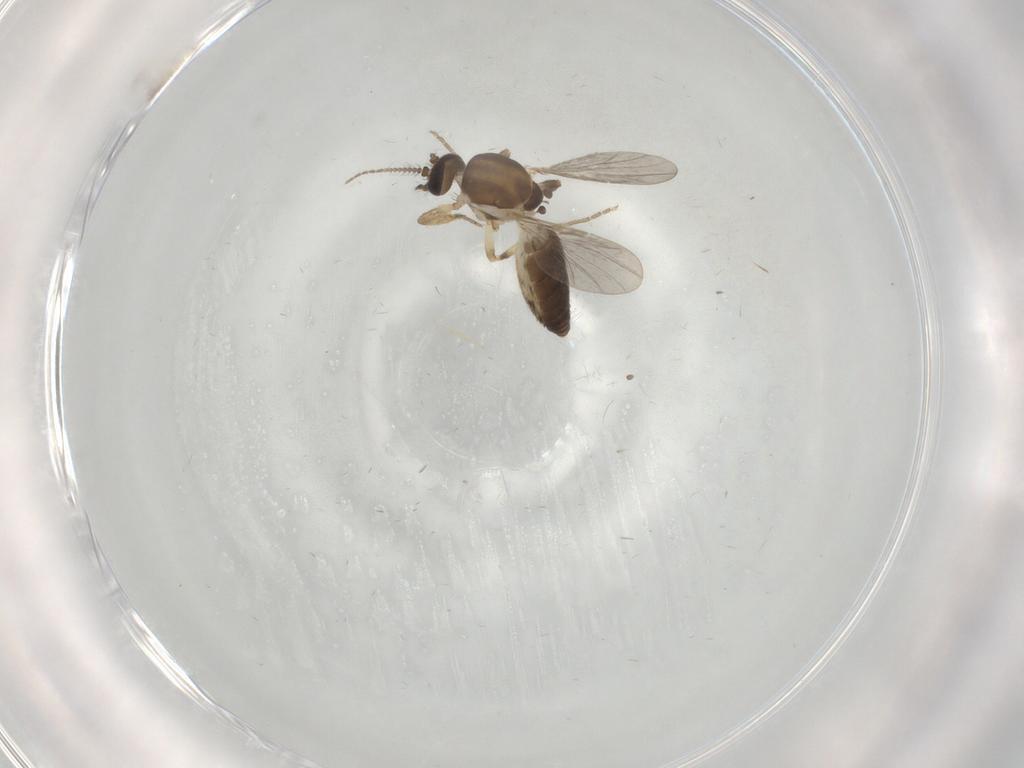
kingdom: Animalia
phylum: Arthropoda
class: Insecta
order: Diptera
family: Ceratopogonidae
